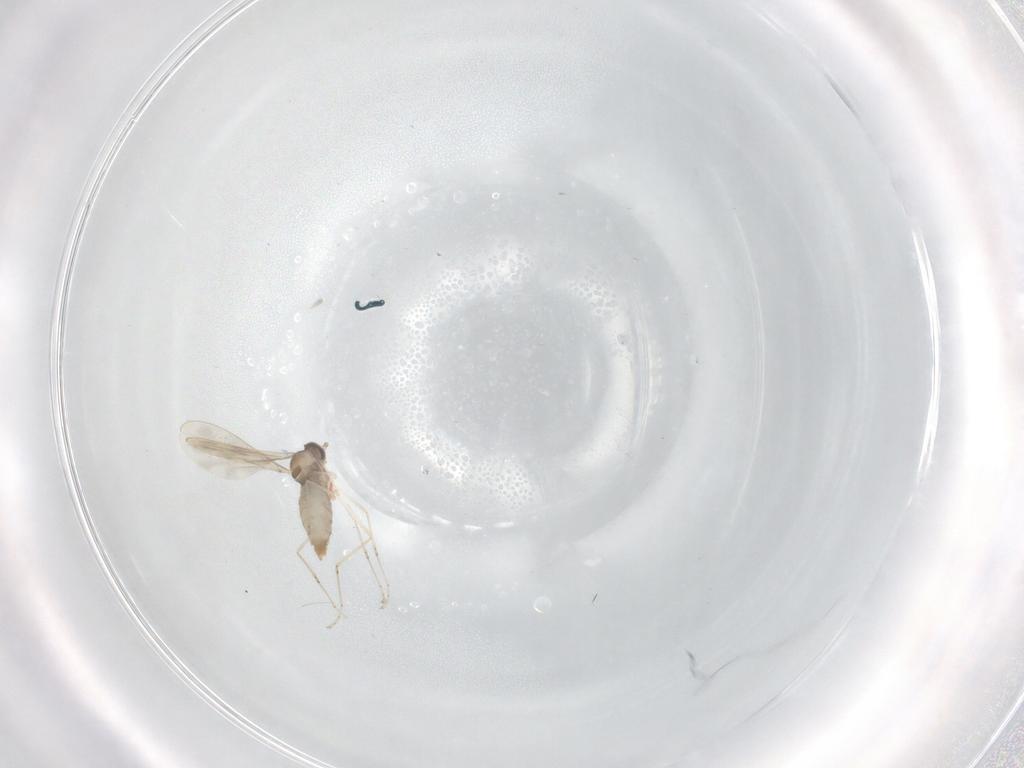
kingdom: Animalia
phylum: Arthropoda
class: Insecta
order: Diptera
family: Cecidomyiidae
